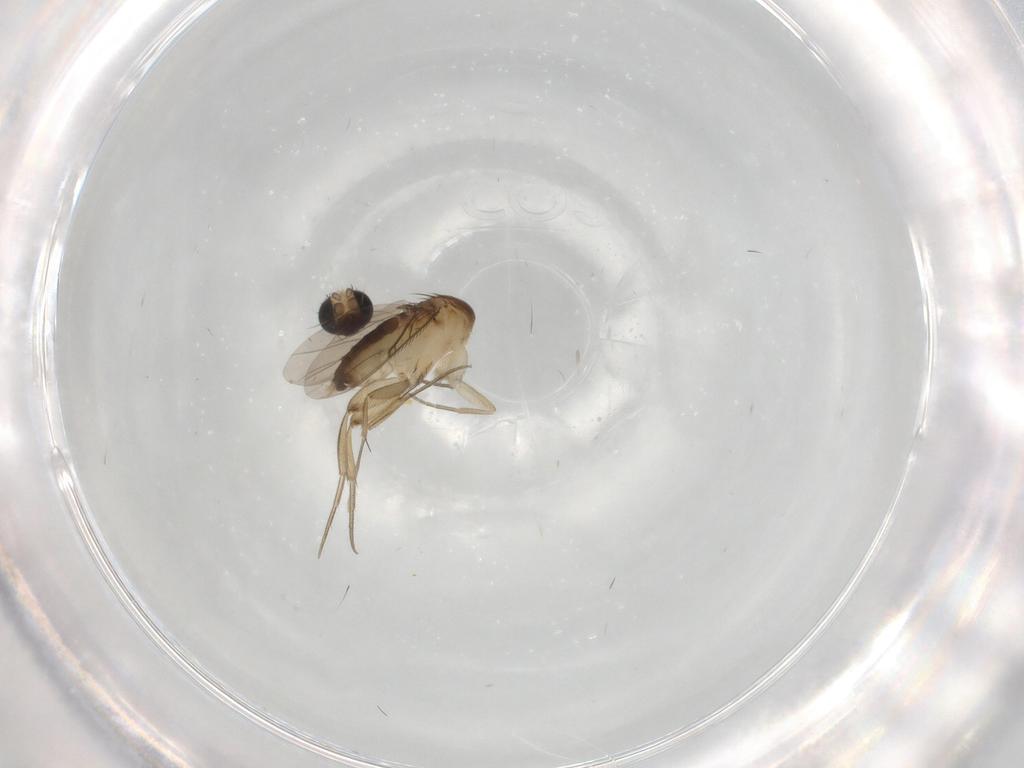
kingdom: Animalia
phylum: Arthropoda
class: Insecta
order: Diptera
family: Phoridae
